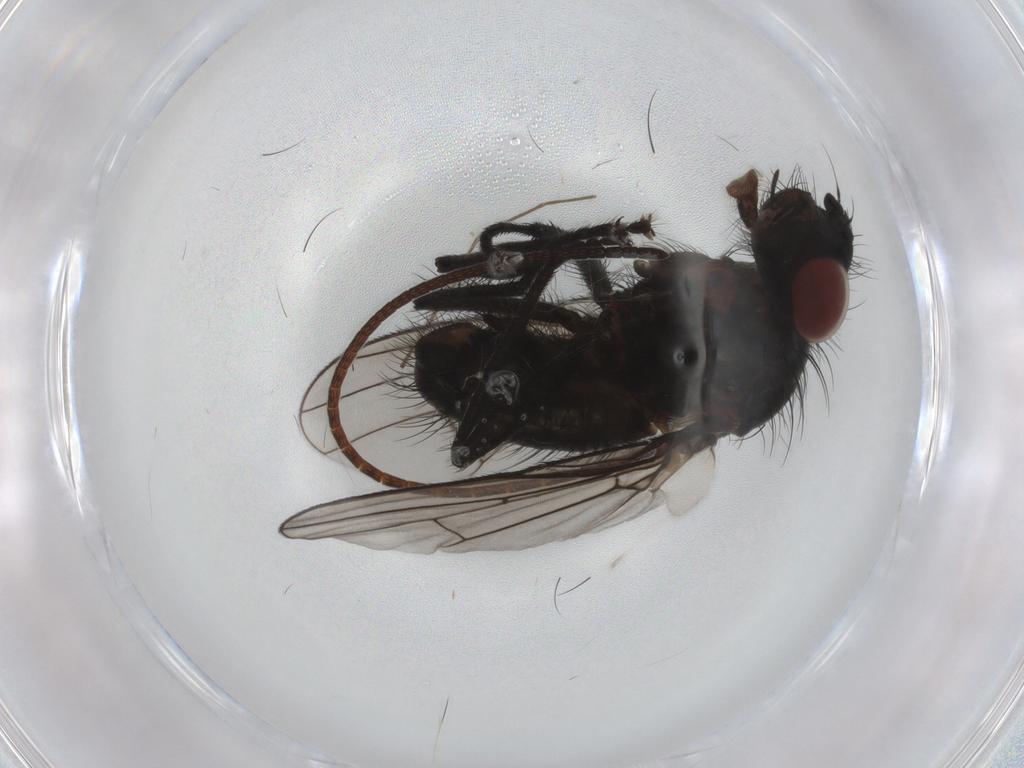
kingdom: Animalia
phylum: Arthropoda
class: Insecta
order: Diptera
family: Anthomyiidae
